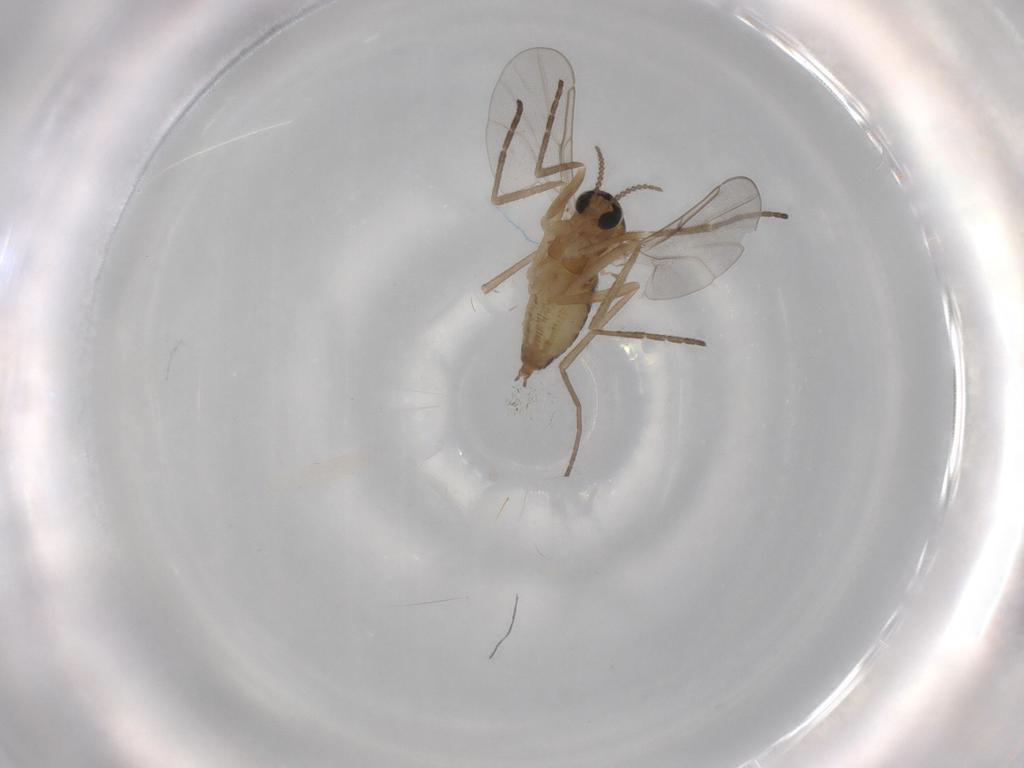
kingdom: Animalia
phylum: Arthropoda
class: Insecta
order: Diptera
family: Cecidomyiidae
